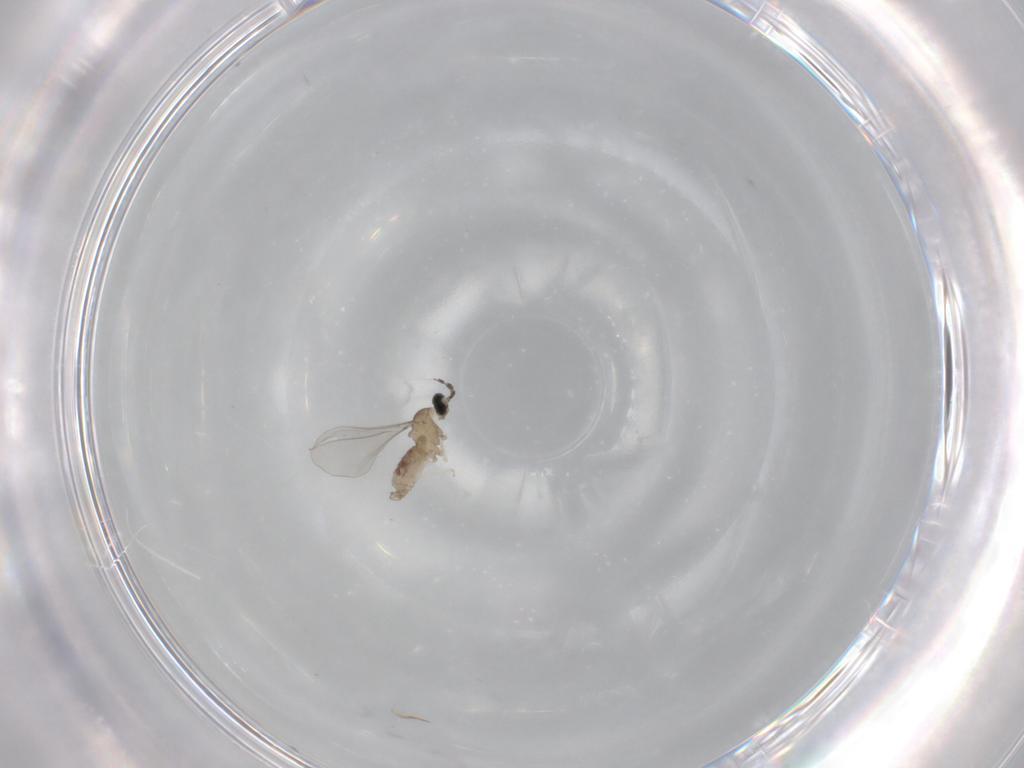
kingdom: Animalia
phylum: Arthropoda
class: Insecta
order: Diptera
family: Cecidomyiidae
